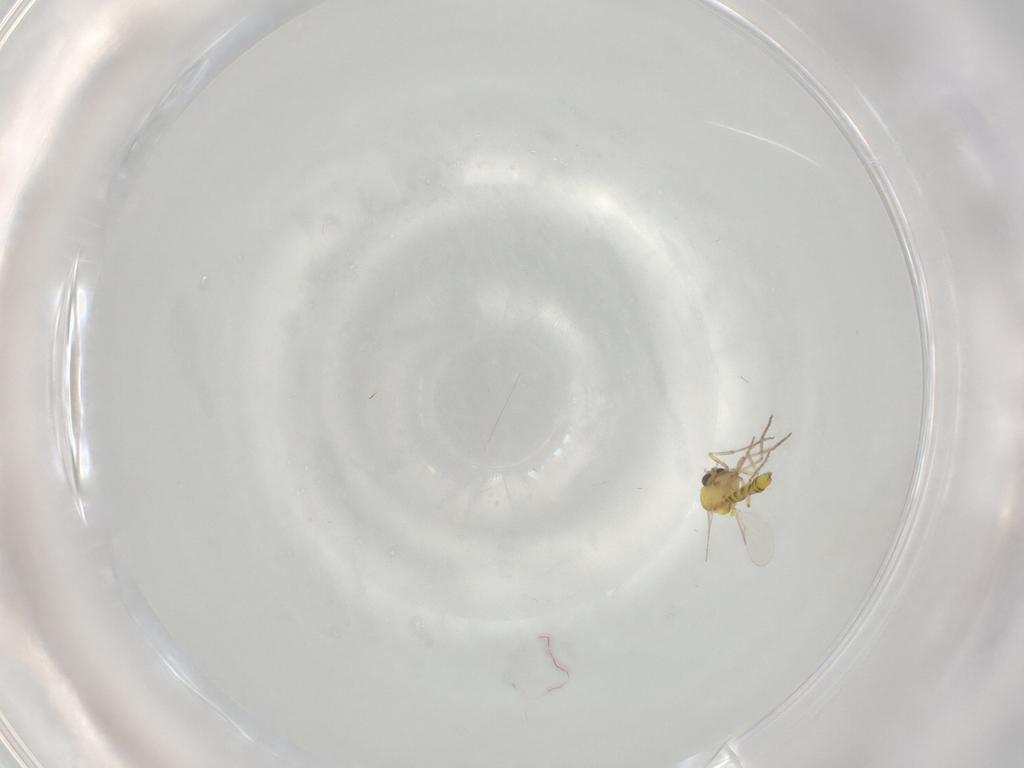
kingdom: Animalia
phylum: Arthropoda
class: Insecta
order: Diptera
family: Ceratopogonidae
